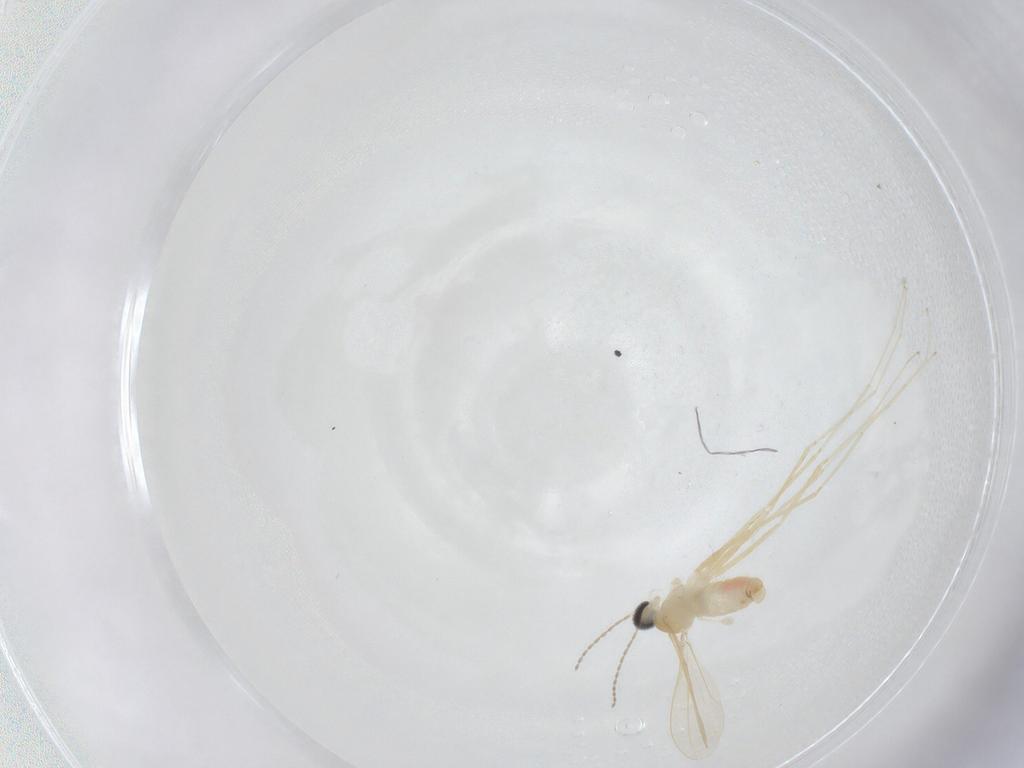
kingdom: Animalia
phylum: Arthropoda
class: Insecta
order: Diptera
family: Cecidomyiidae
